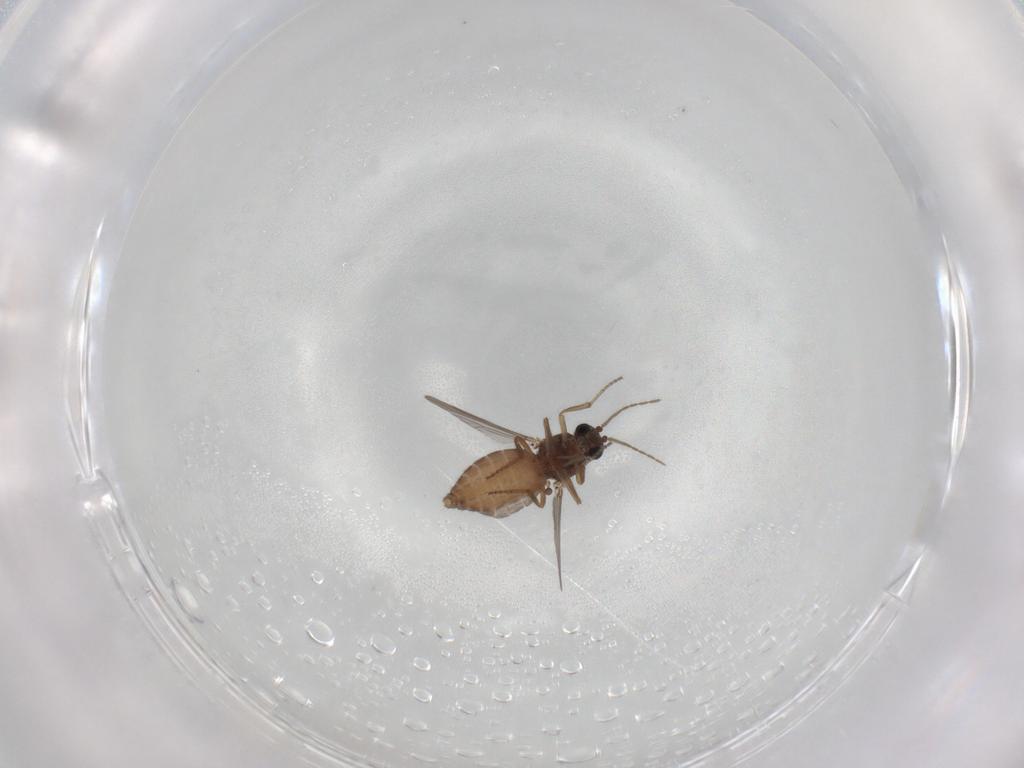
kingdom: Animalia
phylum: Arthropoda
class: Insecta
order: Diptera
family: Ceratopogonidae
